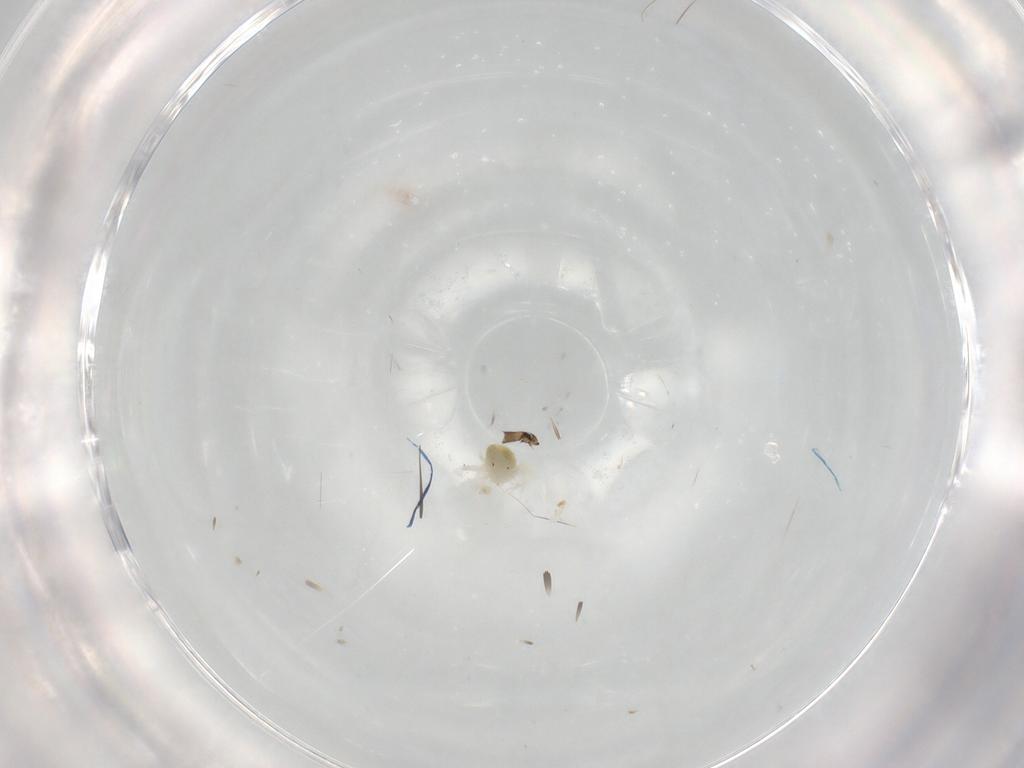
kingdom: Animalia
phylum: Arthropoda
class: Arachnida
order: Trombidiformes
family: Anystidae
